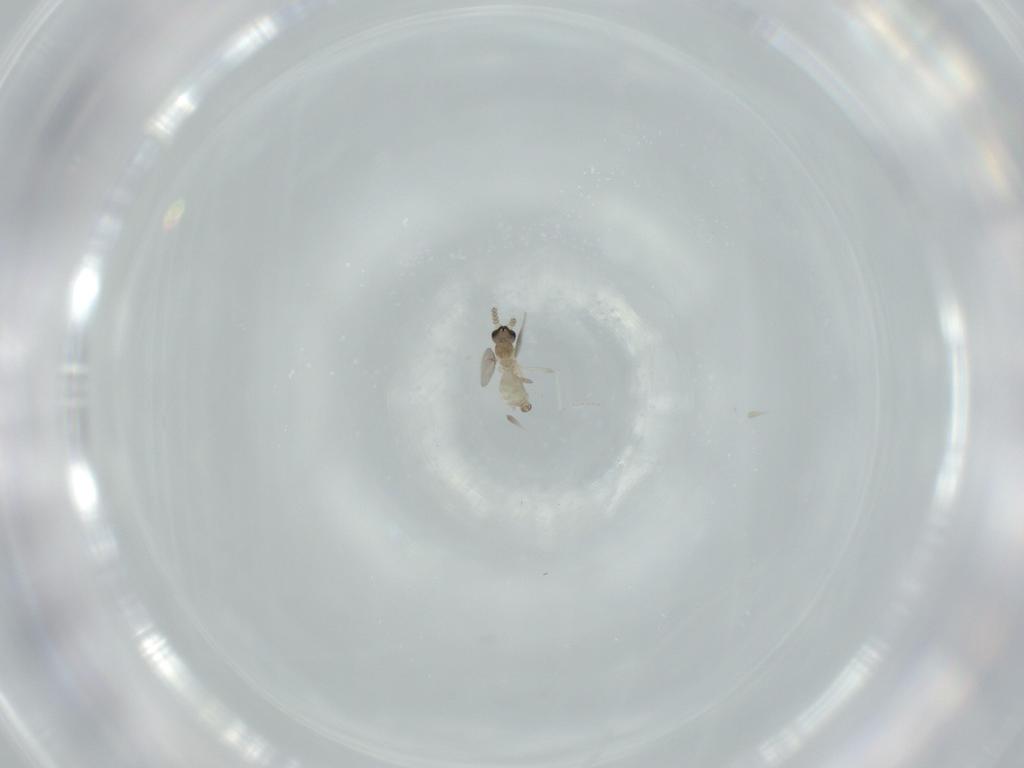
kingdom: Animalia
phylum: Arthropoda
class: Insecta
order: Diptera
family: Cecidomyiidae
